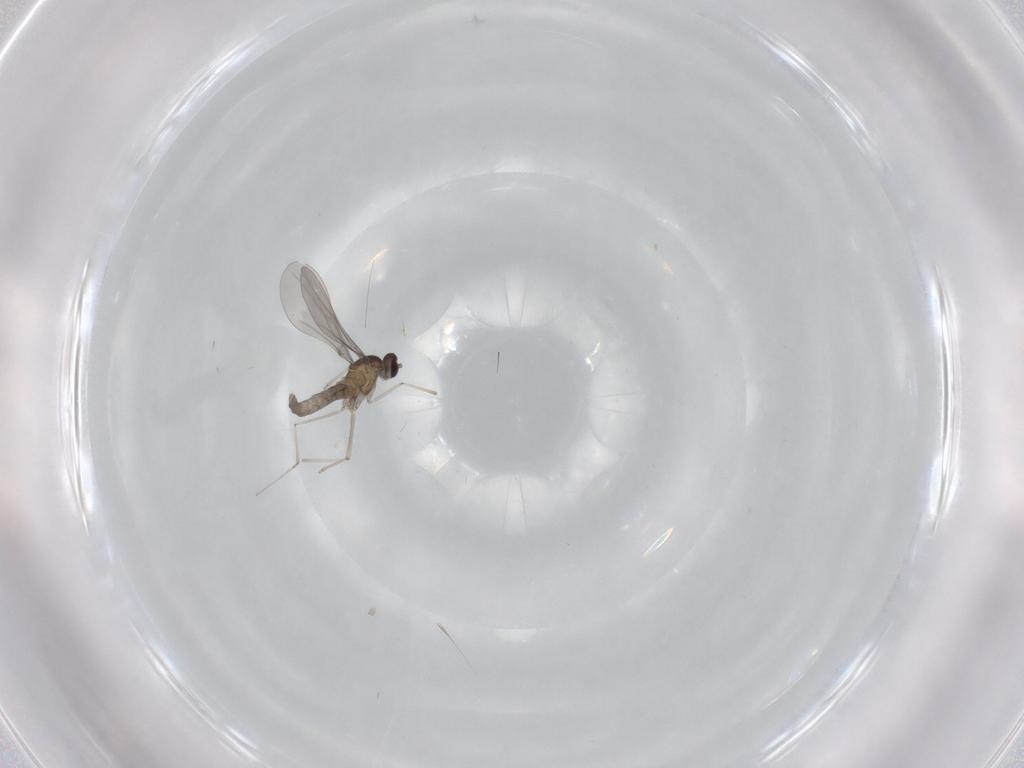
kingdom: Animalia
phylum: Arthropoda
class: Insecta
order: Diptera
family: Cecidomyiidae
